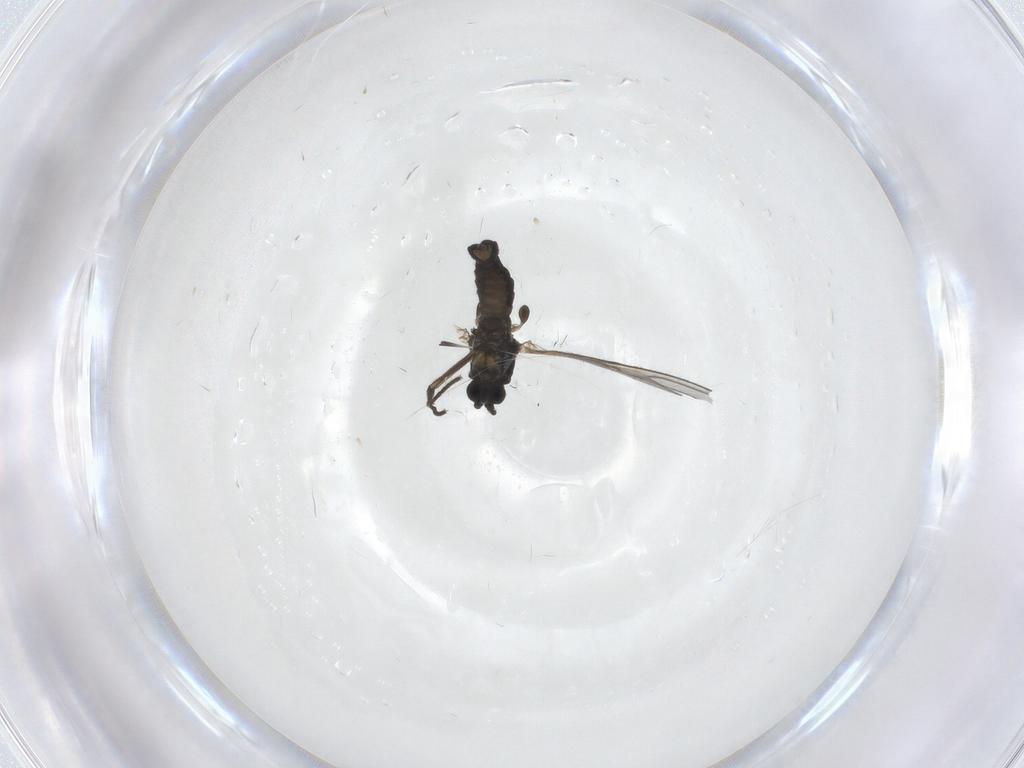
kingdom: Animalia
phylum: Arthropoda
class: Insecta
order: Diptera
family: Sciaridae
